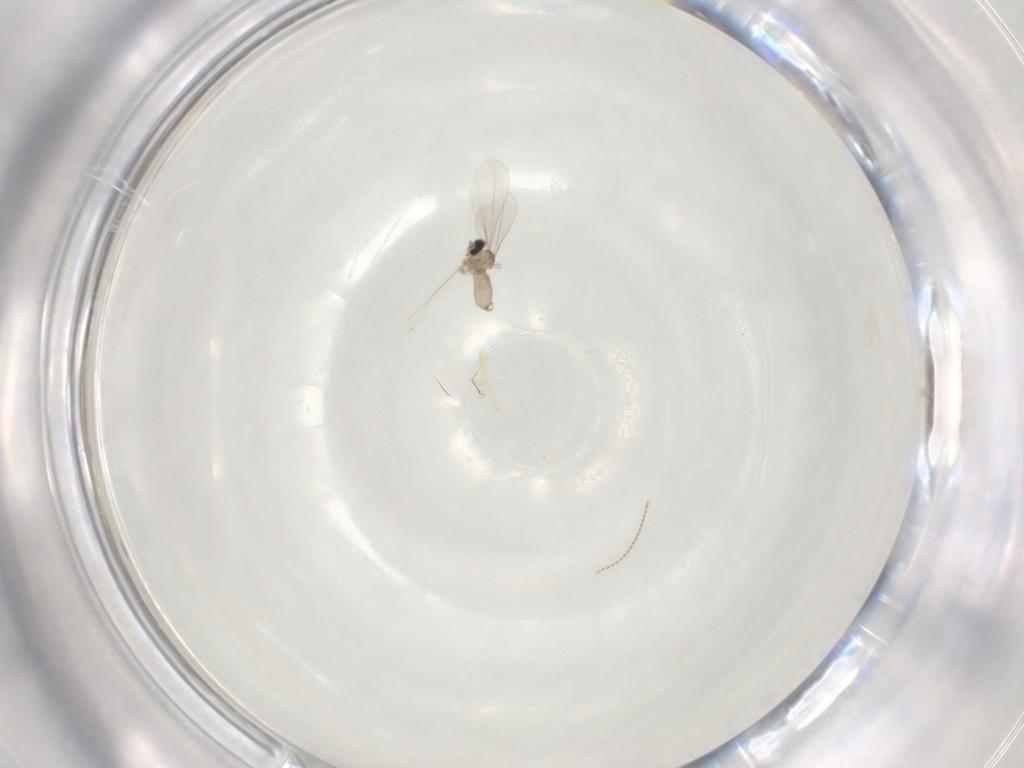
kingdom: Animalia
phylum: Arthropoda
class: Insecta
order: Diptera
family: Cecidomyiidae
